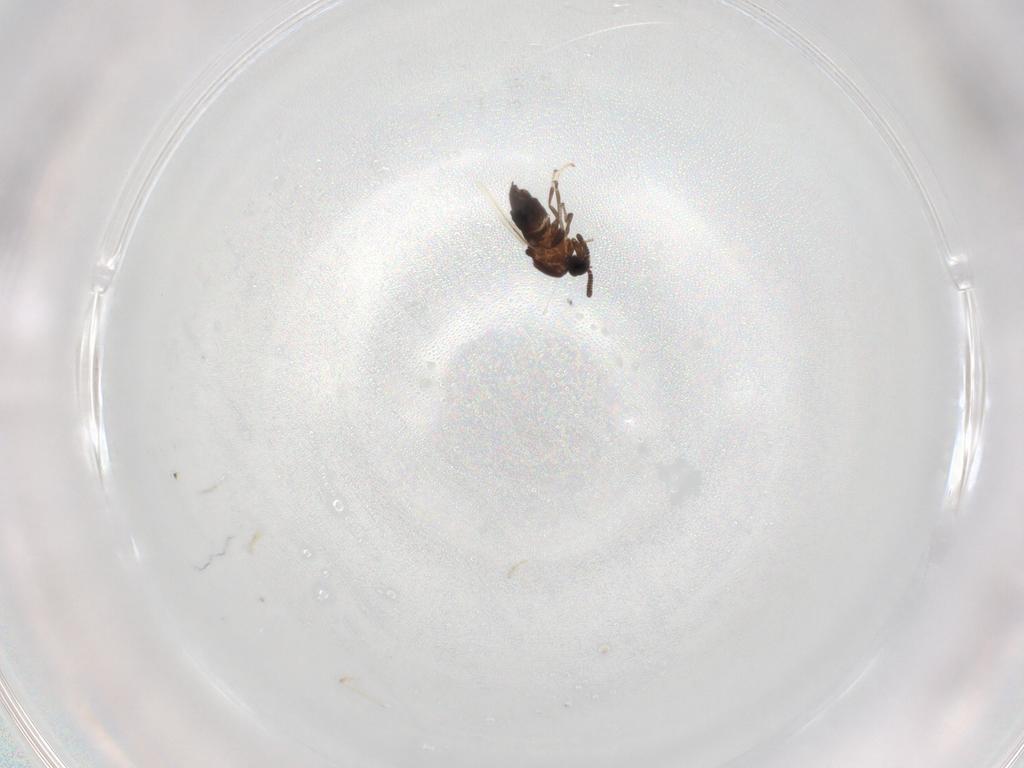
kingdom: Animalia
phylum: Arthropoda
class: Insecta
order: Diptera
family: Scatopsidae
